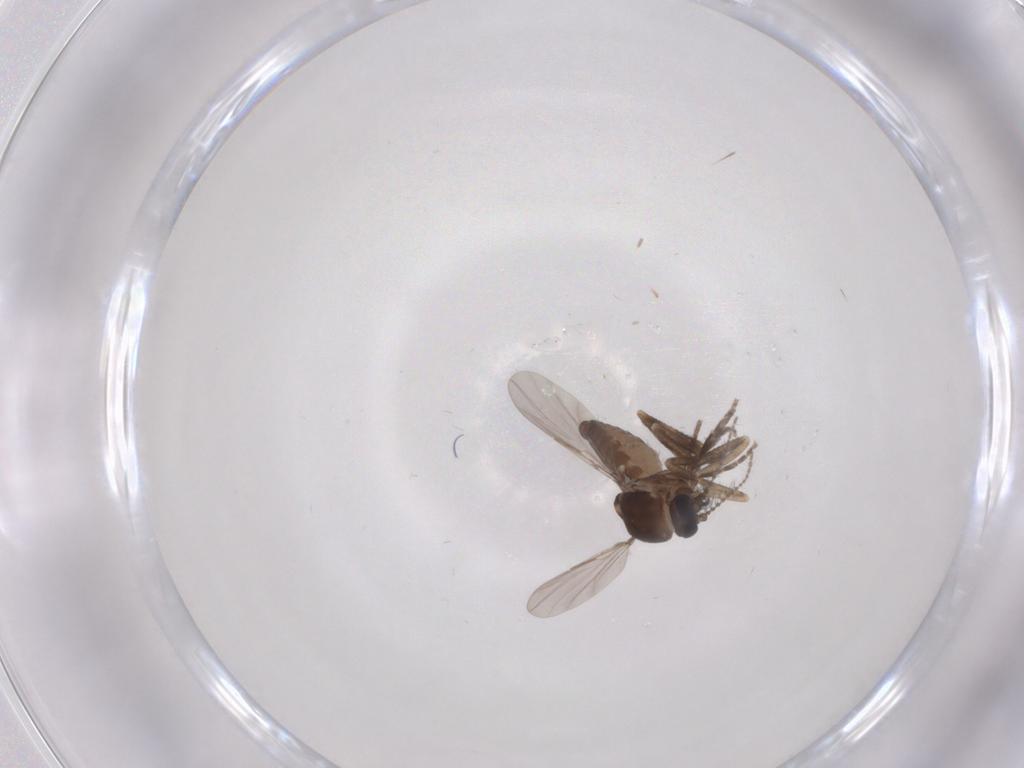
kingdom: Animalia
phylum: Arthropoda
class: Insecta
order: Diptera
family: Ceratopogonidae
